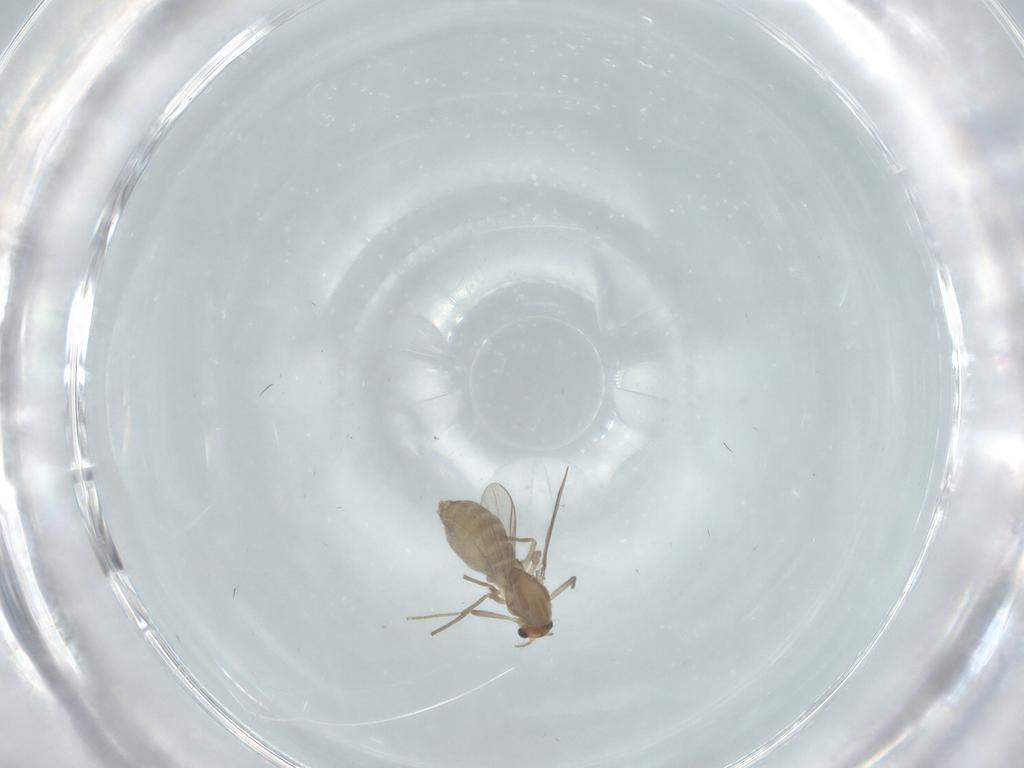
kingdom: Animalia
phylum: Arthropoda
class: Insecta
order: Diptera
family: Chironomidae
